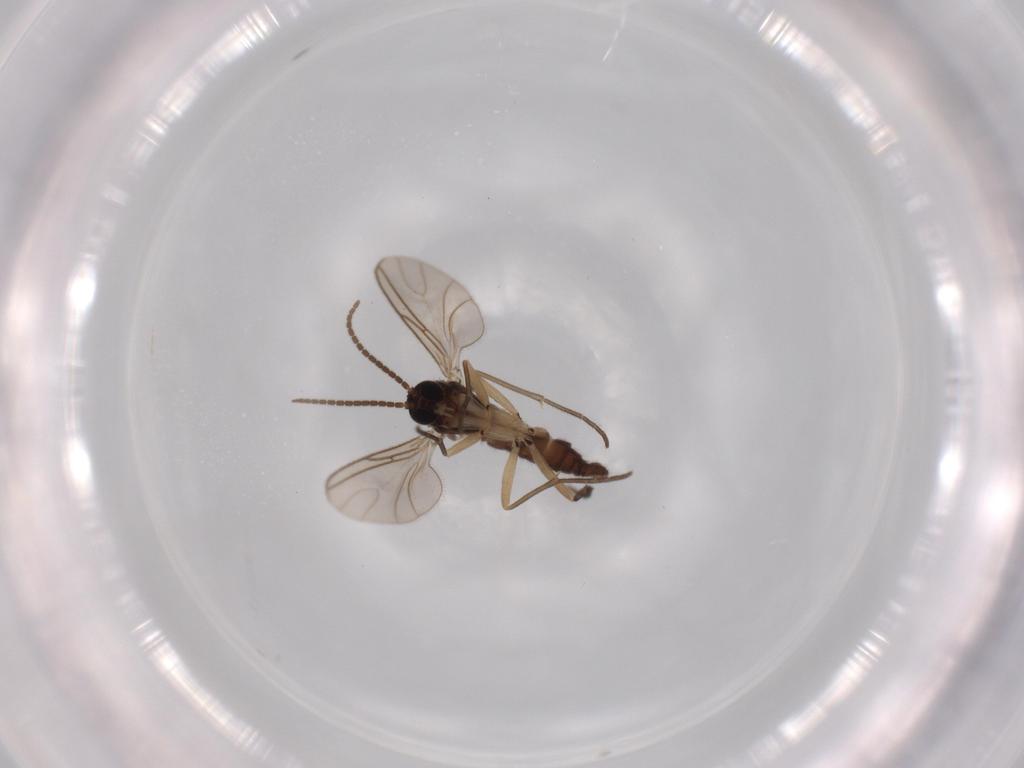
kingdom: Animalia
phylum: Arthropoda
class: Insecta
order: Diptera
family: Sciaridae
